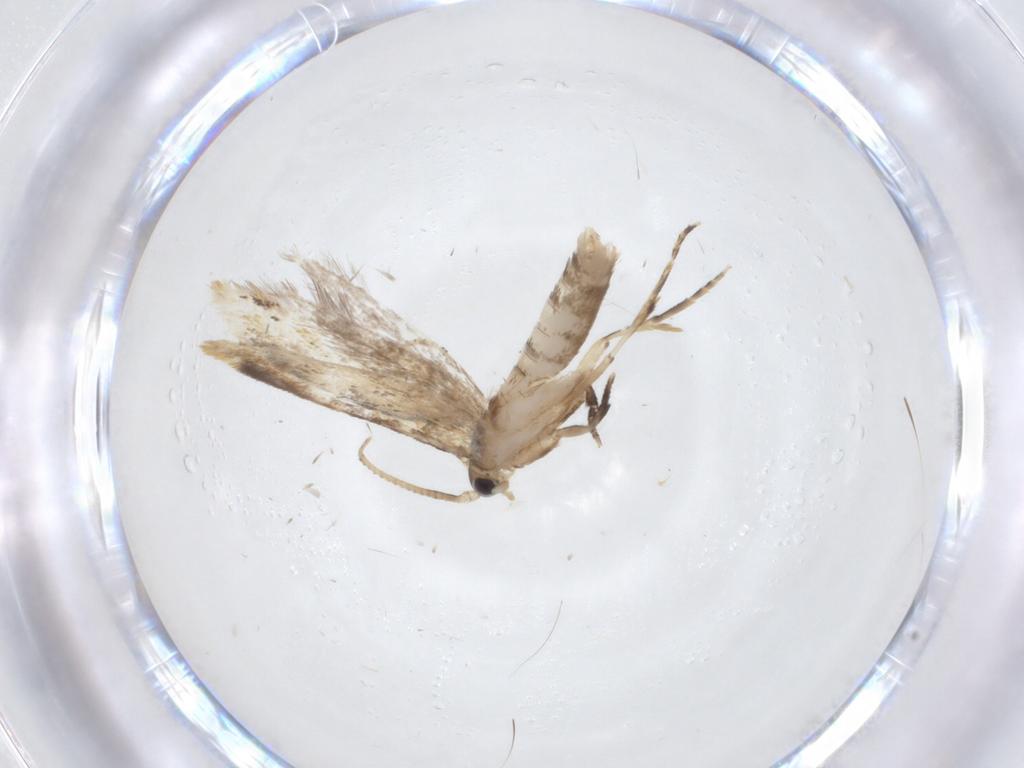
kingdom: Animalia
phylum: Arthropoda
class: Insecta
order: Lepidoptera
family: Dryadaulidae
